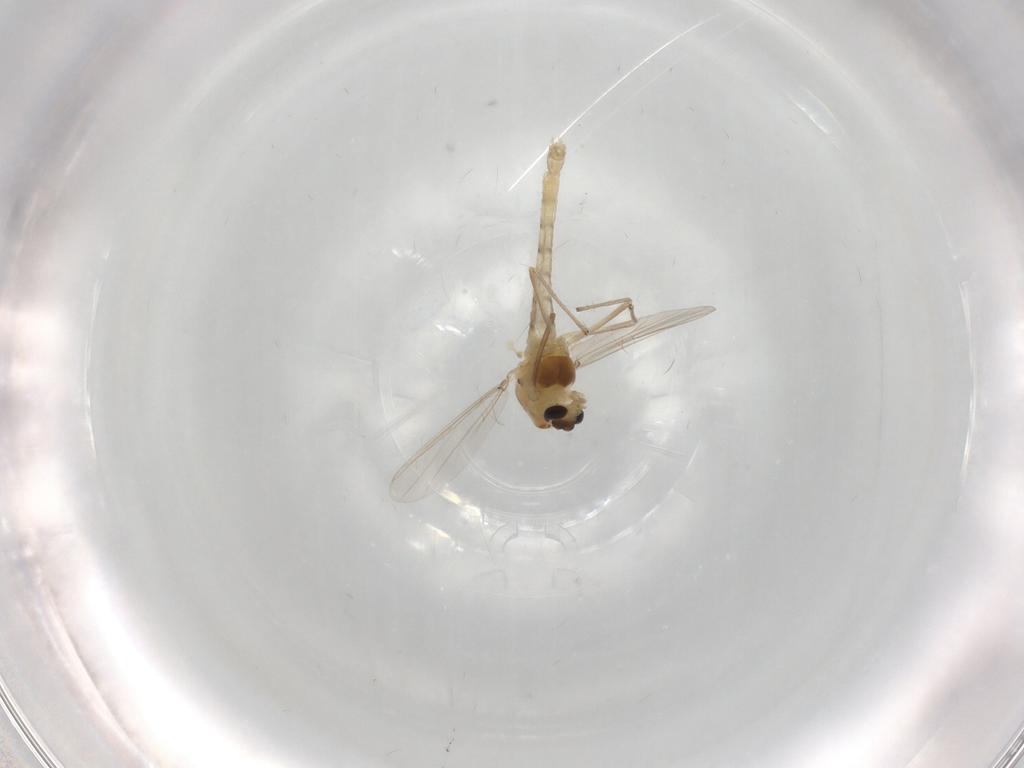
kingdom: Animalia
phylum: Arthropoda
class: Insecta
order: Diptera
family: Chironomidae
